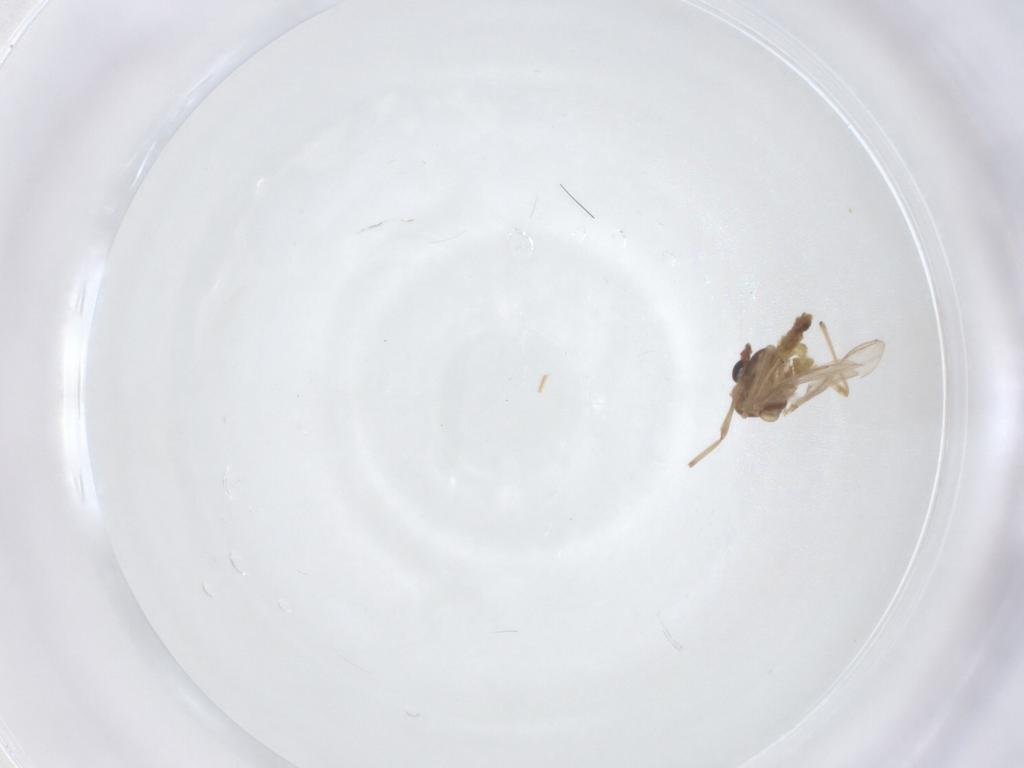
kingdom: Animalia
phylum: Arthropoda
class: Insecta
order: Diptera
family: Chironomidae
